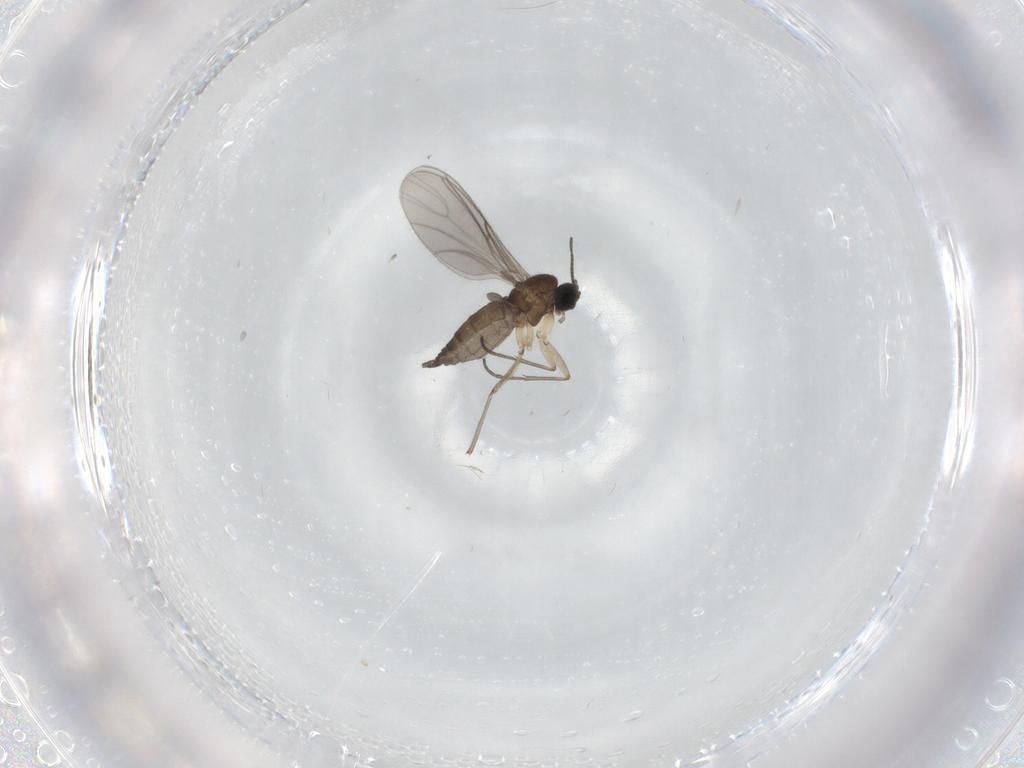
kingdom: Animalia
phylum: Arthropoda
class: Insecta
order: Diptera
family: Sciaridae
